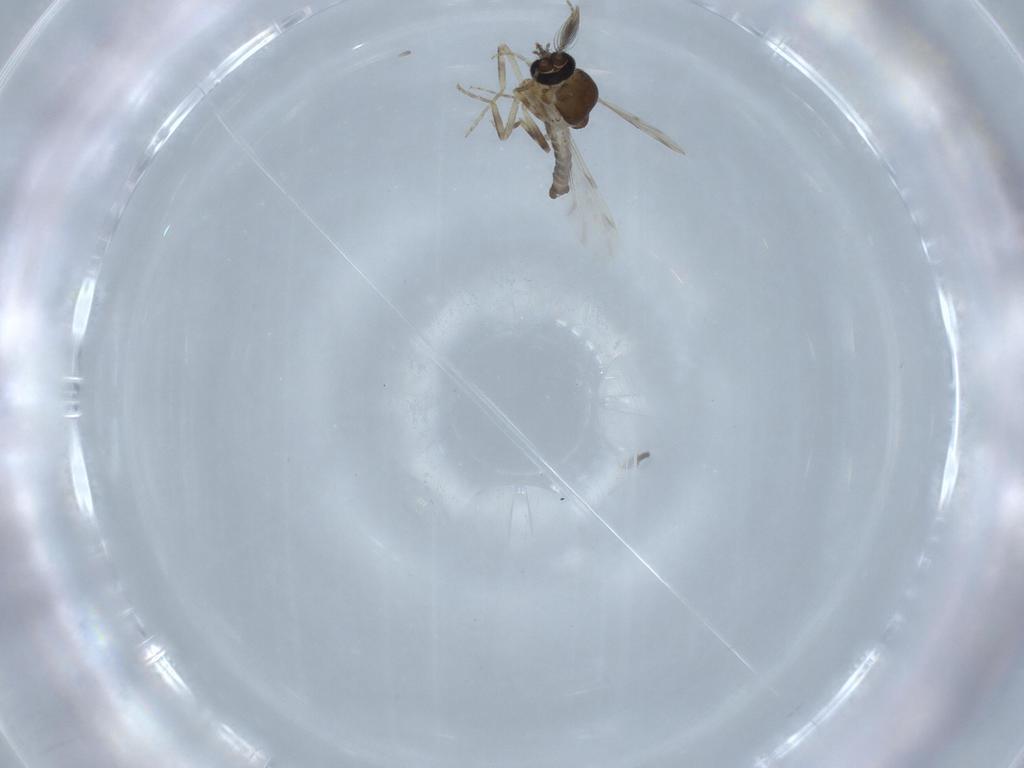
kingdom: Animalia
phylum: Arthropoda
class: Insecta
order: Diptera
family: Ceratopogonidae
